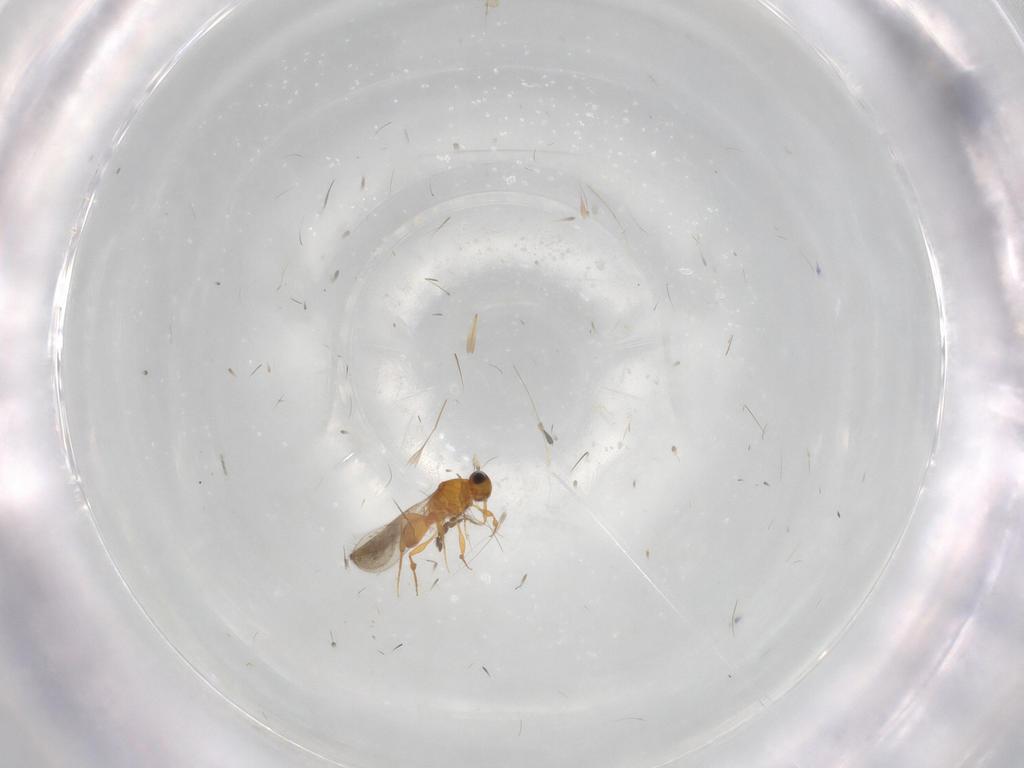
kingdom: Animalia
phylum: Arthropoda
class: Insecta
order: Hymenoptera
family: Platygastridae
